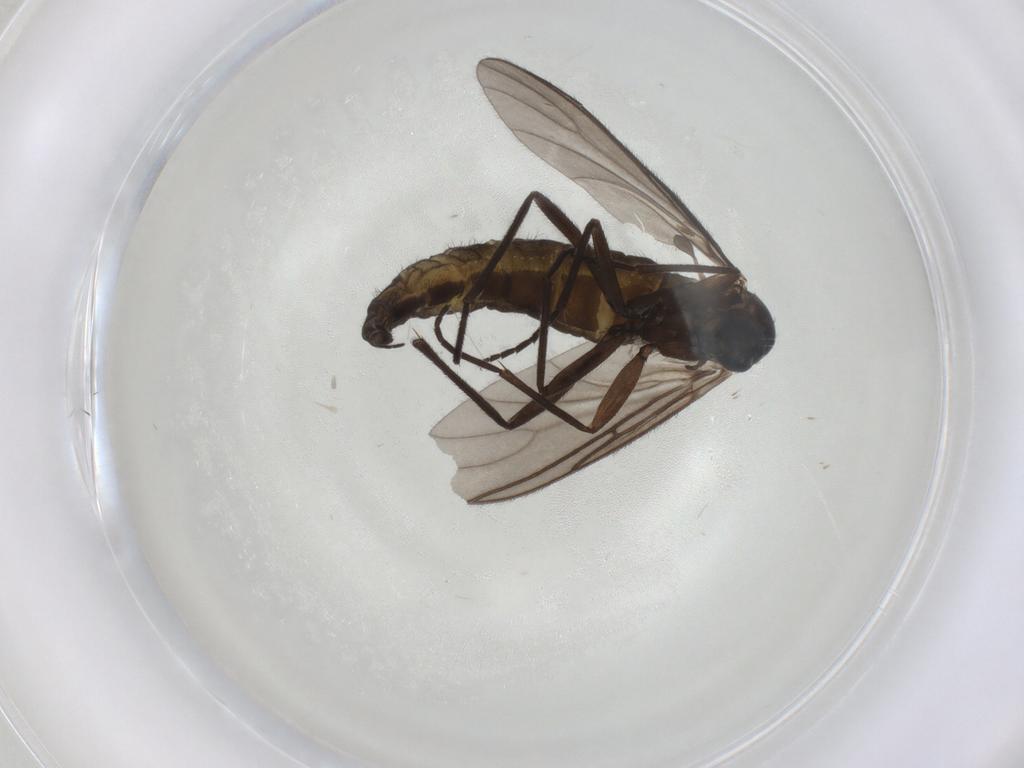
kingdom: Animalia
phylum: Arthropoda
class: Insecta
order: Diptera
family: Sciaridae
